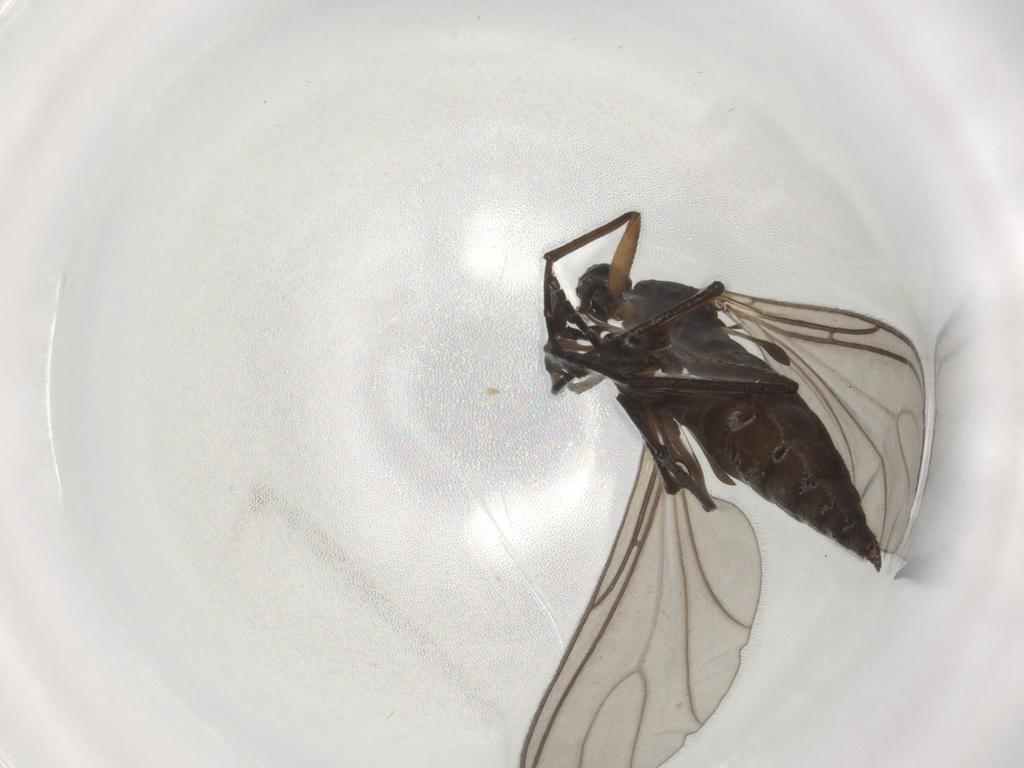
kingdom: Animalia
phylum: Arthropoda
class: Insecta
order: Diptera
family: Sciaridae
